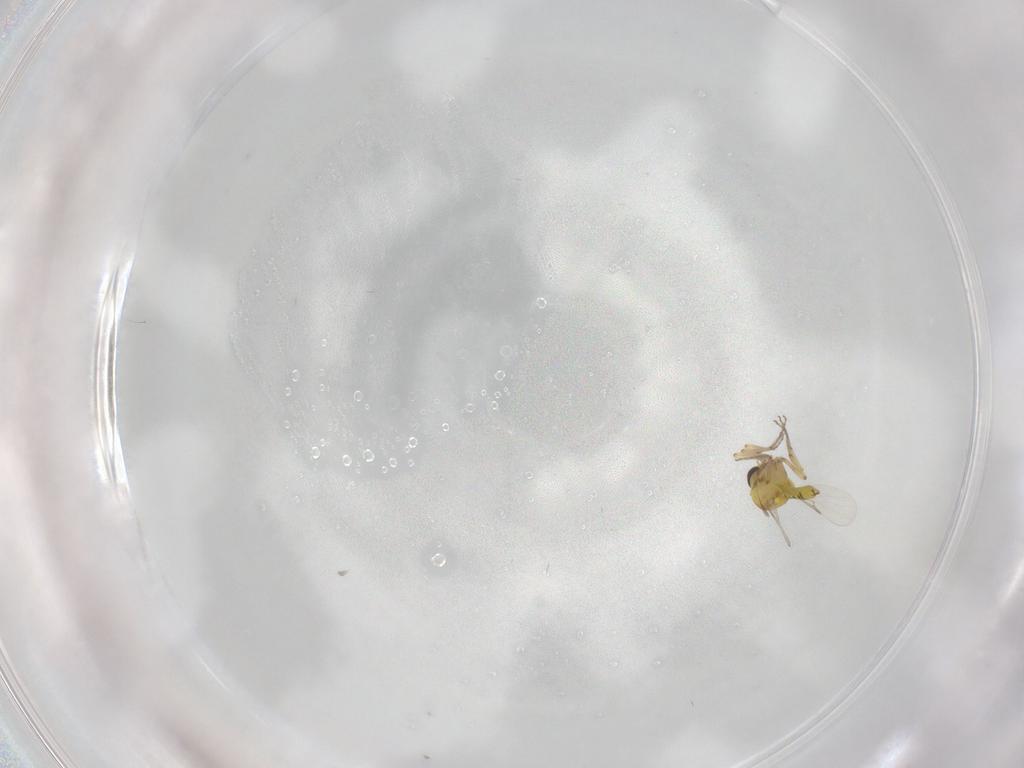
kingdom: Animalia
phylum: Arthropoda
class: Insecta
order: Diptera
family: Ceratopogonidae
